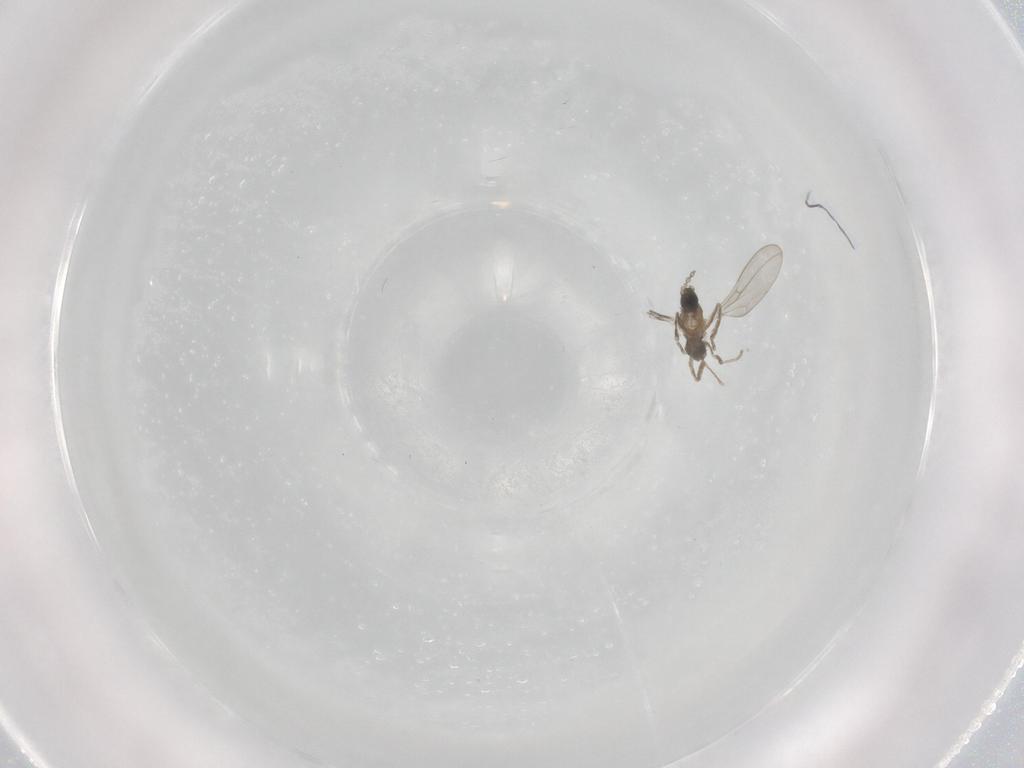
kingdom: Animalia
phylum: Arthropoda
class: Insecta
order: Diptera
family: Cecidomyiidae
